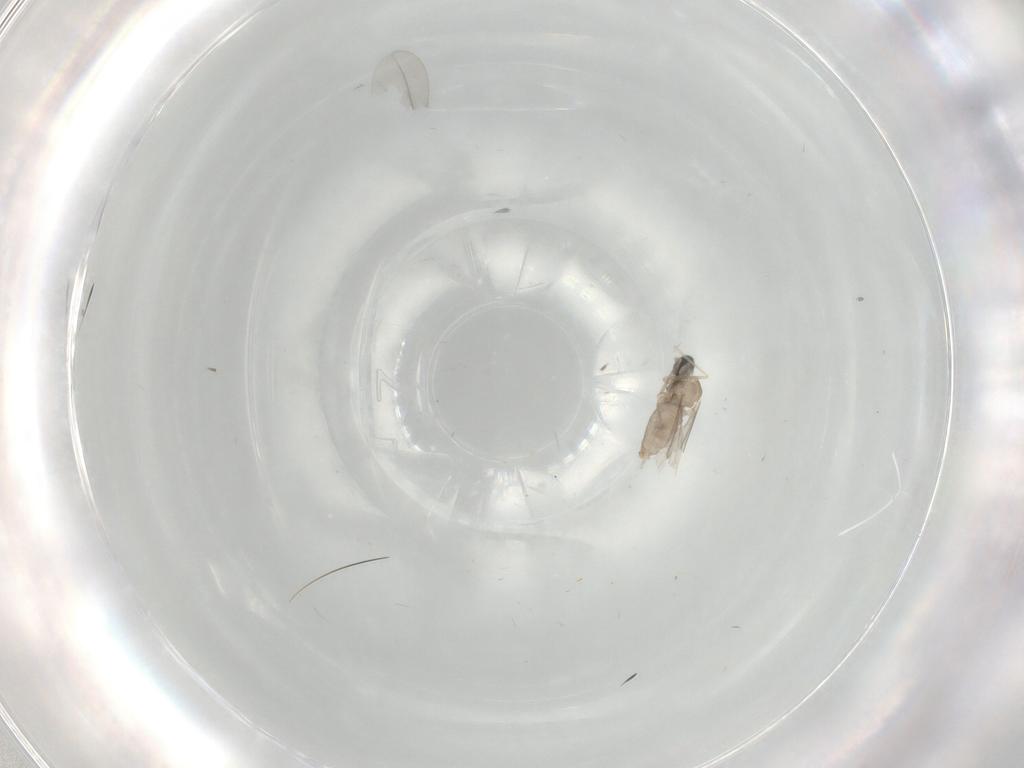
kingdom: Animalia
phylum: Arthropoda
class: Insecta
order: Diptera
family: Cecidomyiidae
